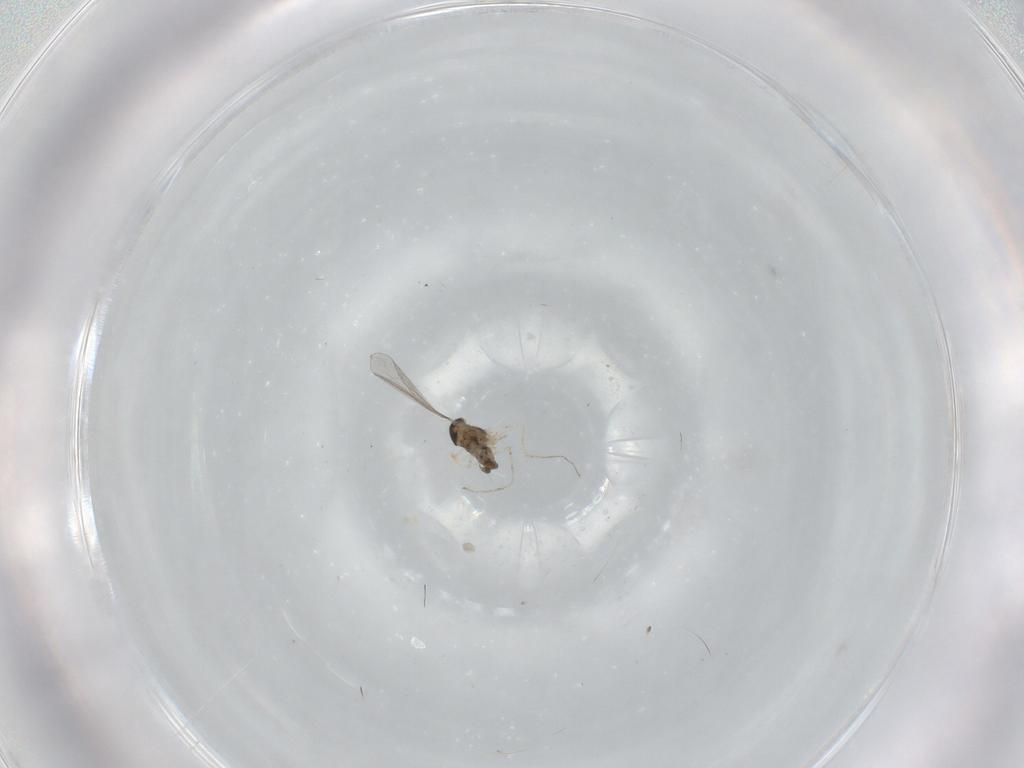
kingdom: Animalia
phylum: Arthropoda
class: Insecta
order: Diptera
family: Cecidomyiidae
